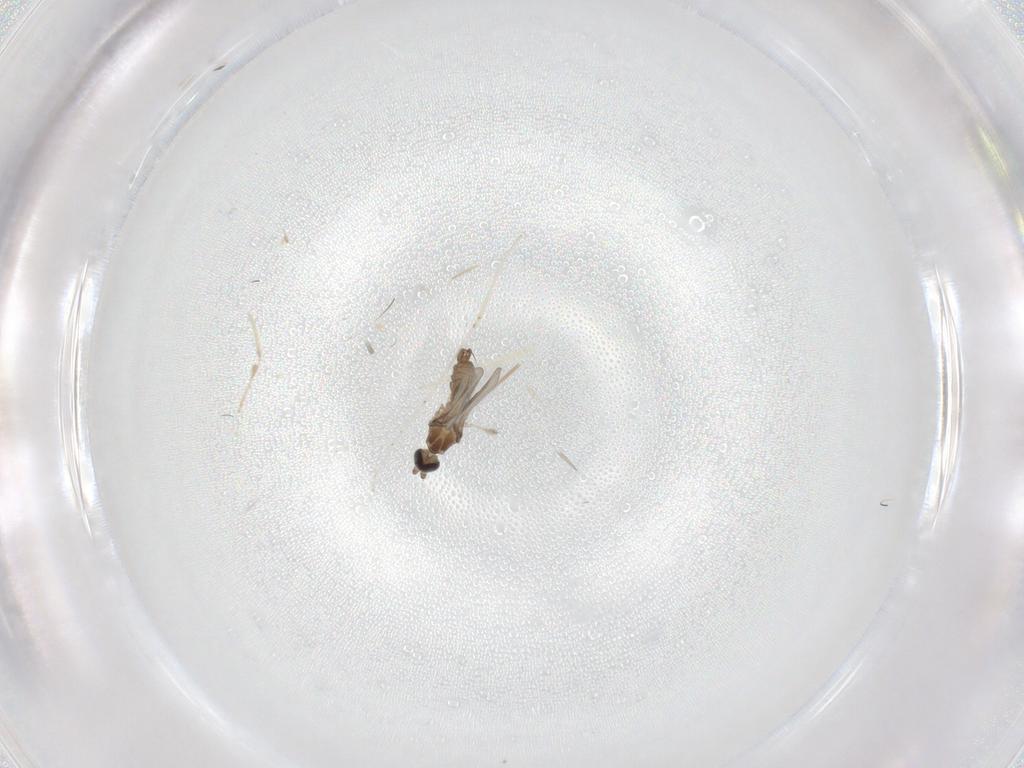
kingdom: Animalia
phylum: Arthropoda
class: Insecta
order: Diptera
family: Cecidomyiidae
